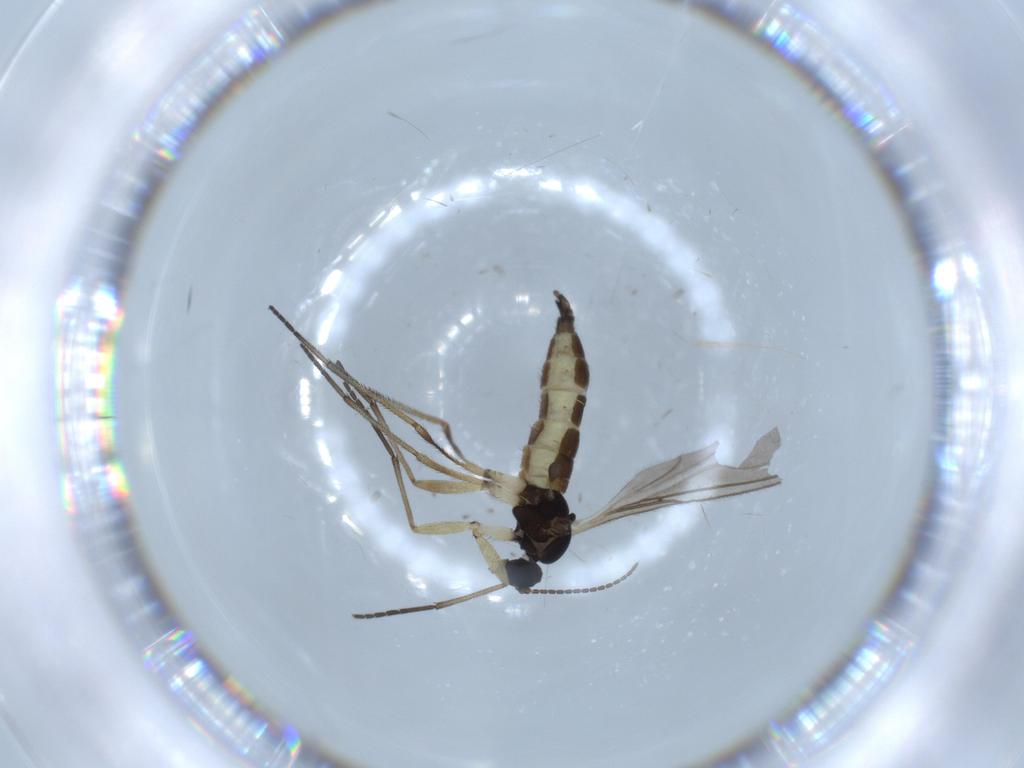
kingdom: Animalia
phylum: Arthropoda
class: Insecta
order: Diptera
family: Sciaridae
